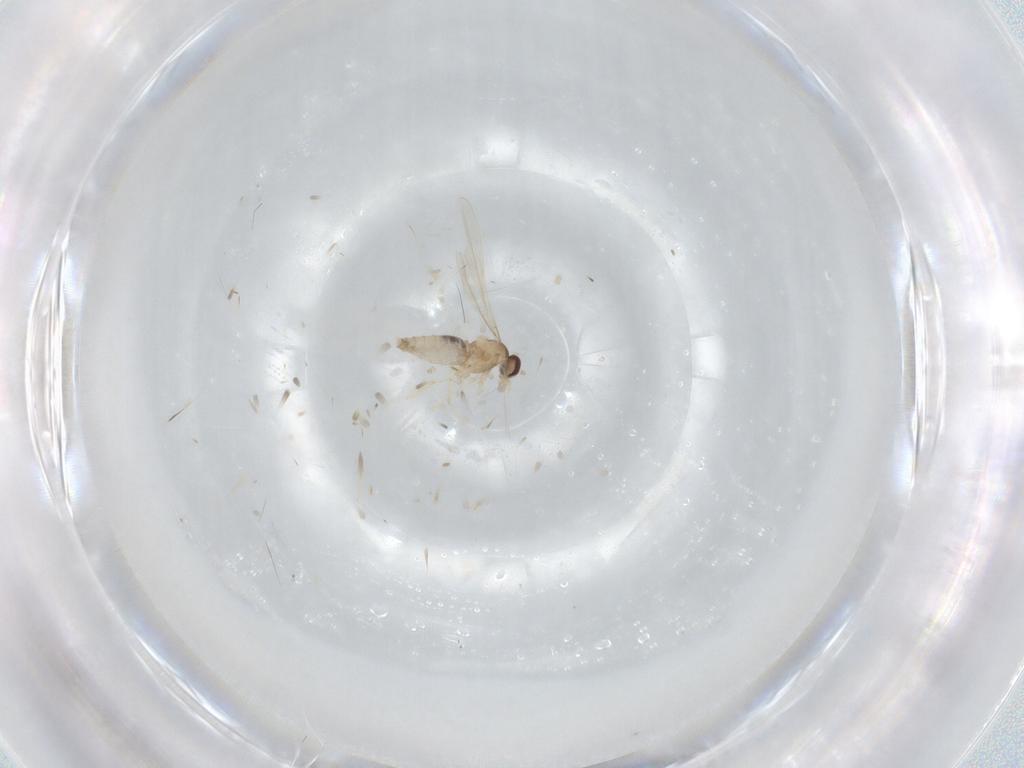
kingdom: Animalia
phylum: Arthropoda
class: Insecta
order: Diptera
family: Cecidomyiidae
